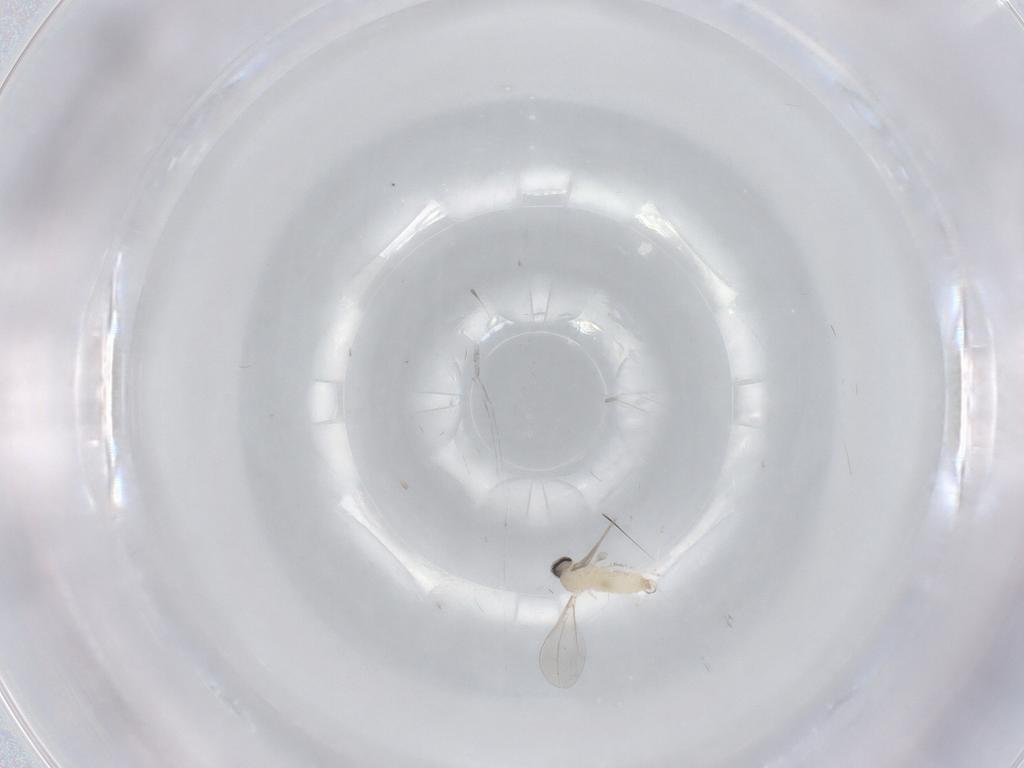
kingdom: Animalia
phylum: Arthropoda
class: Insecta
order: Diptera
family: Cecidomyiidae
